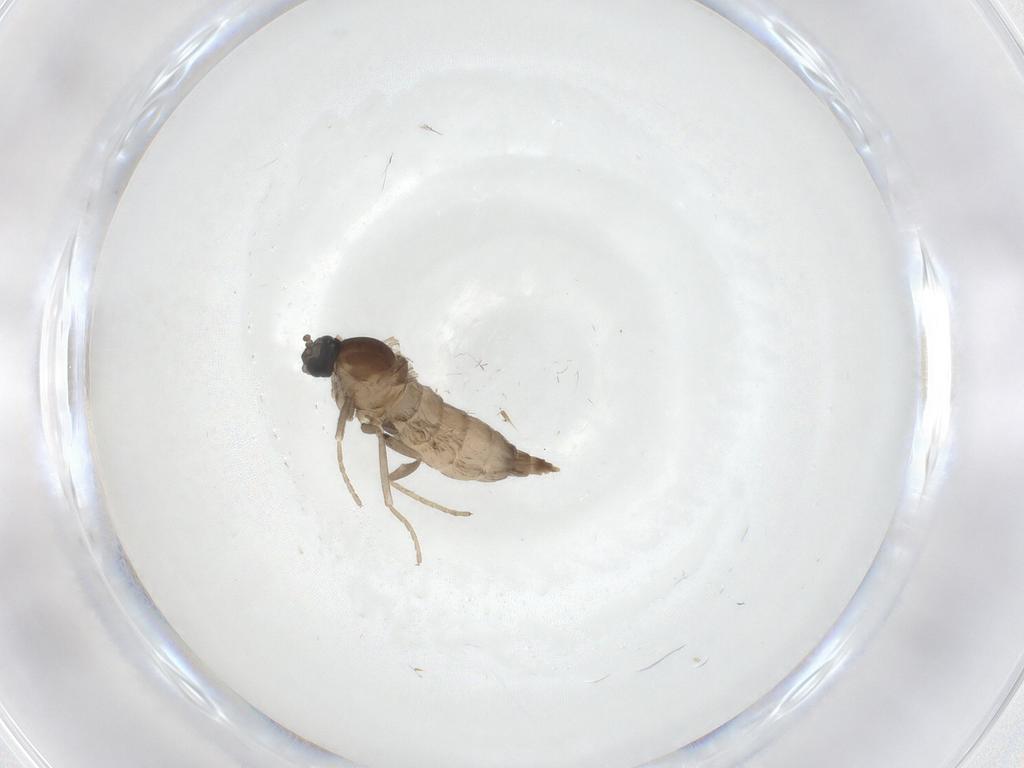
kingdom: Animalia
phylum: Arthropoda
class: Insecta
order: Diptera
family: Cecidomyiidae
